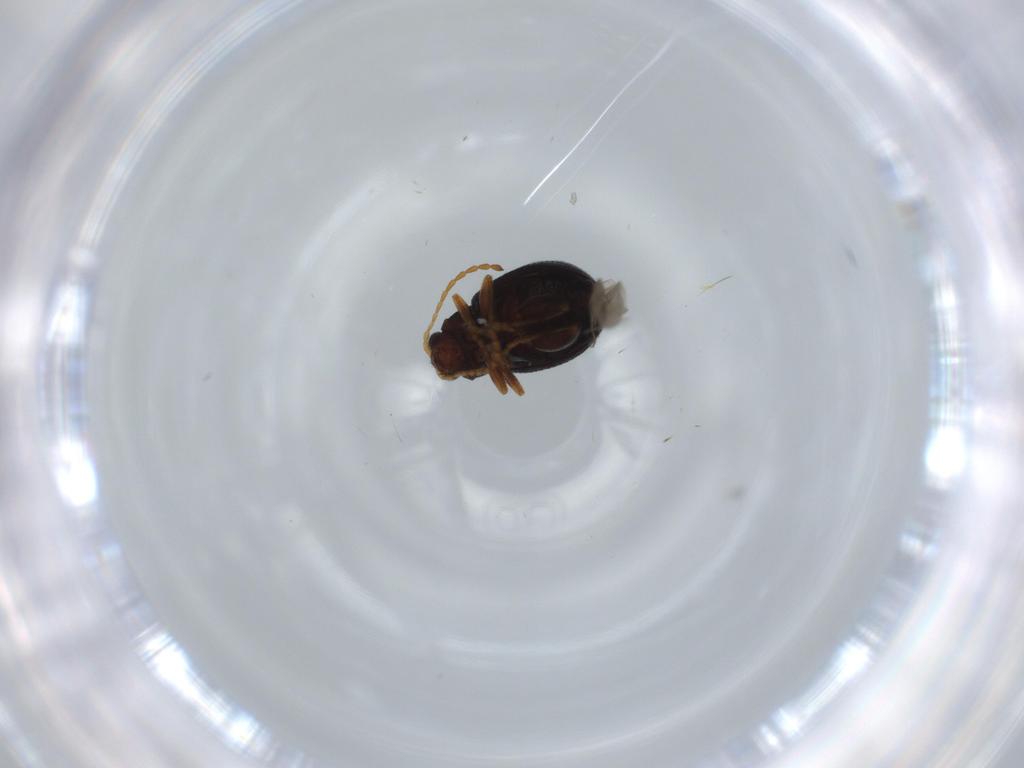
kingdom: Animalia
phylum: Arthropoda
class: Insecta
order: Coleoptera
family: Chrysomelidae
